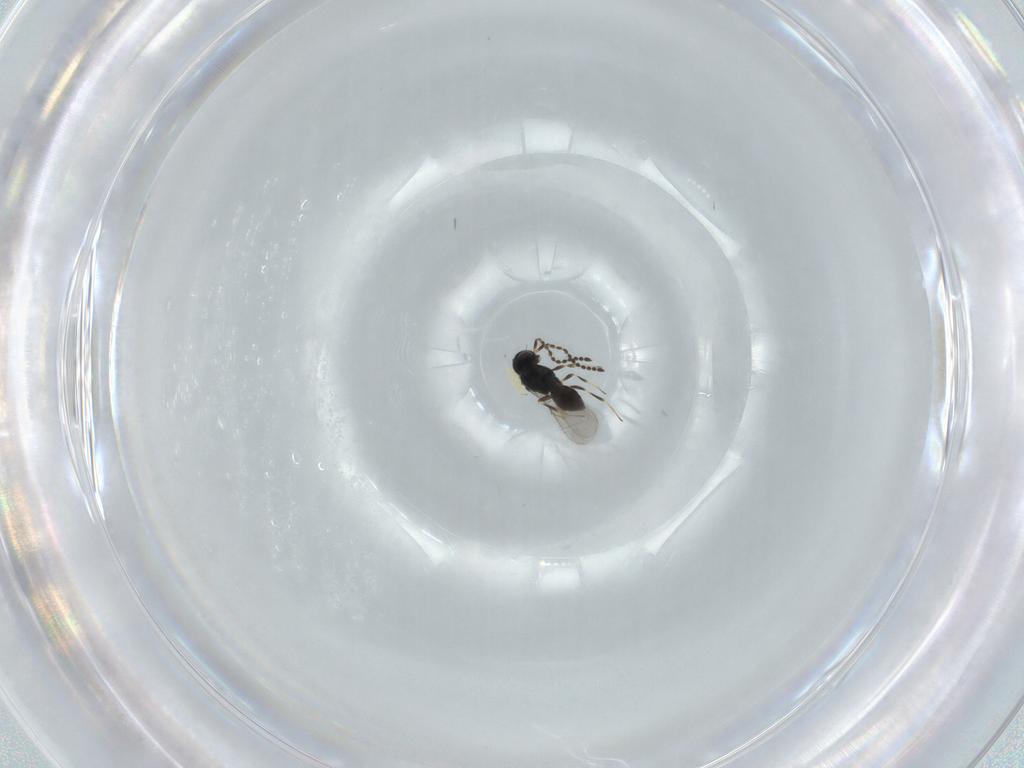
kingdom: Animalia
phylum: Arthropoda
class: Insecta
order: Hymenoptera
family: Scelionidae
